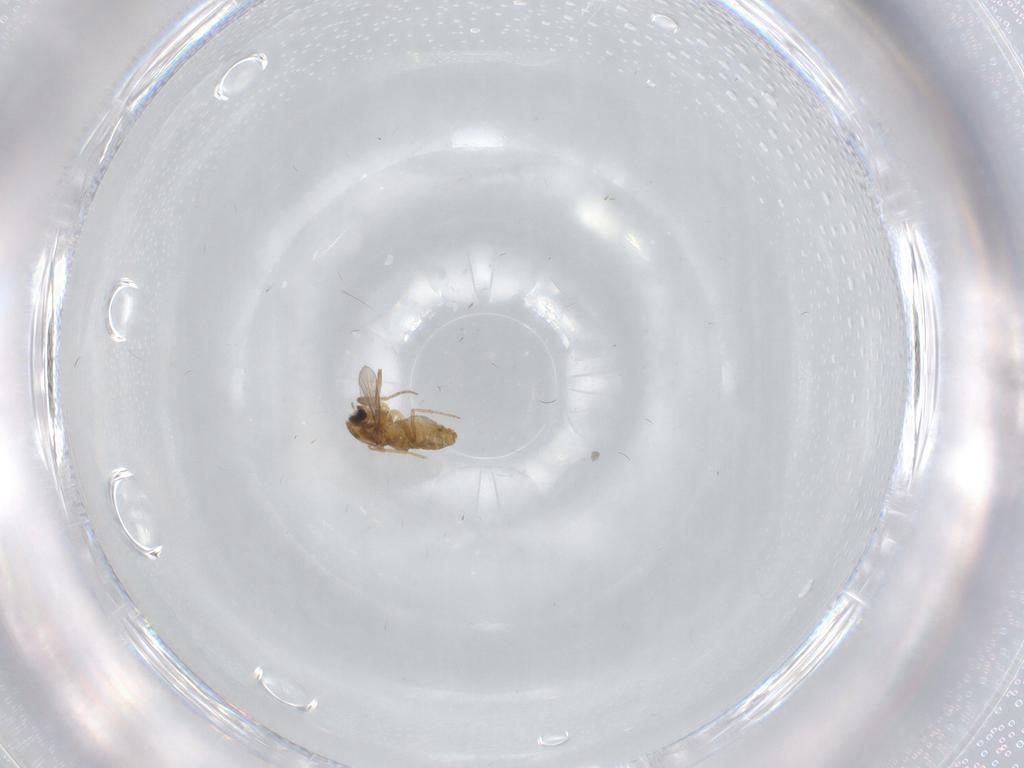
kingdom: Animalia
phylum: Arthropoda
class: Insecta
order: Diptera
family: Chironomidae
